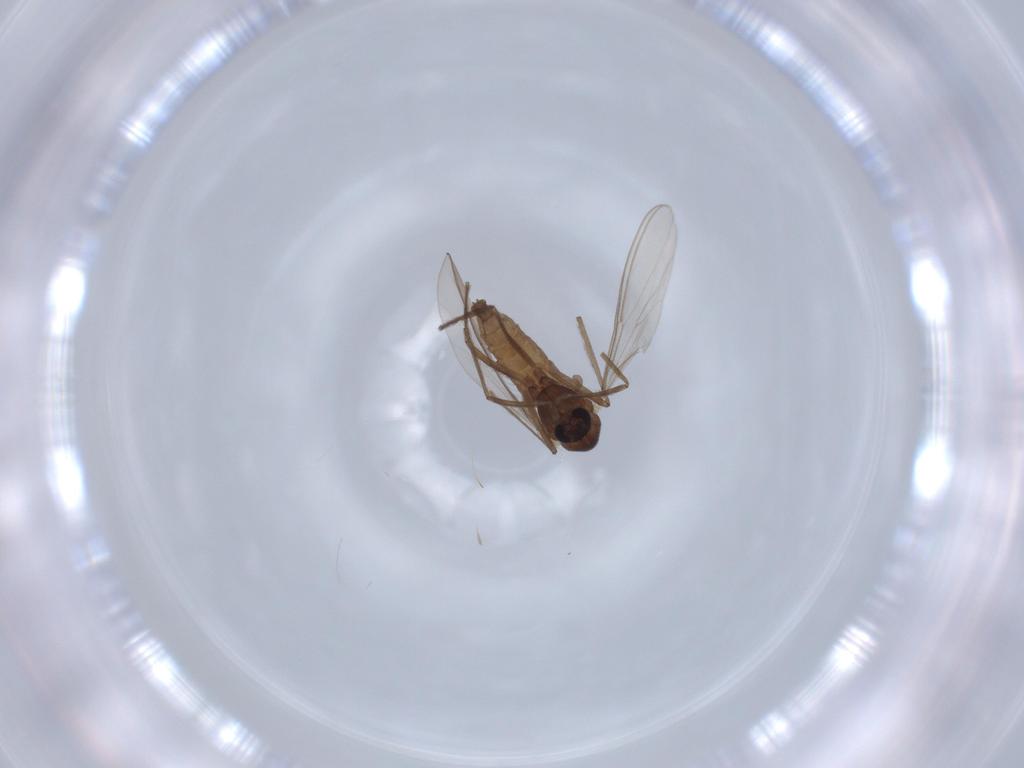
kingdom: Animalia
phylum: Arthropoda
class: Insecta
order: Diptera
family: Chironomidae
